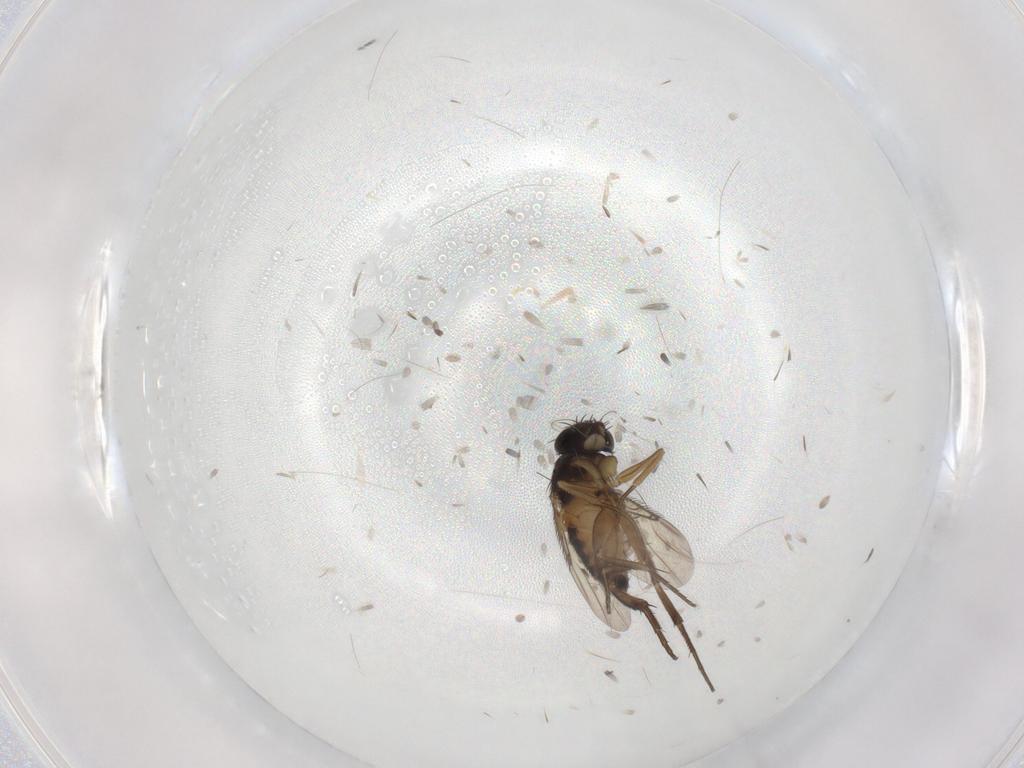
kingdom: Animalia
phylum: Arthropoda
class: Insecta
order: Diptera
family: Phoridae
